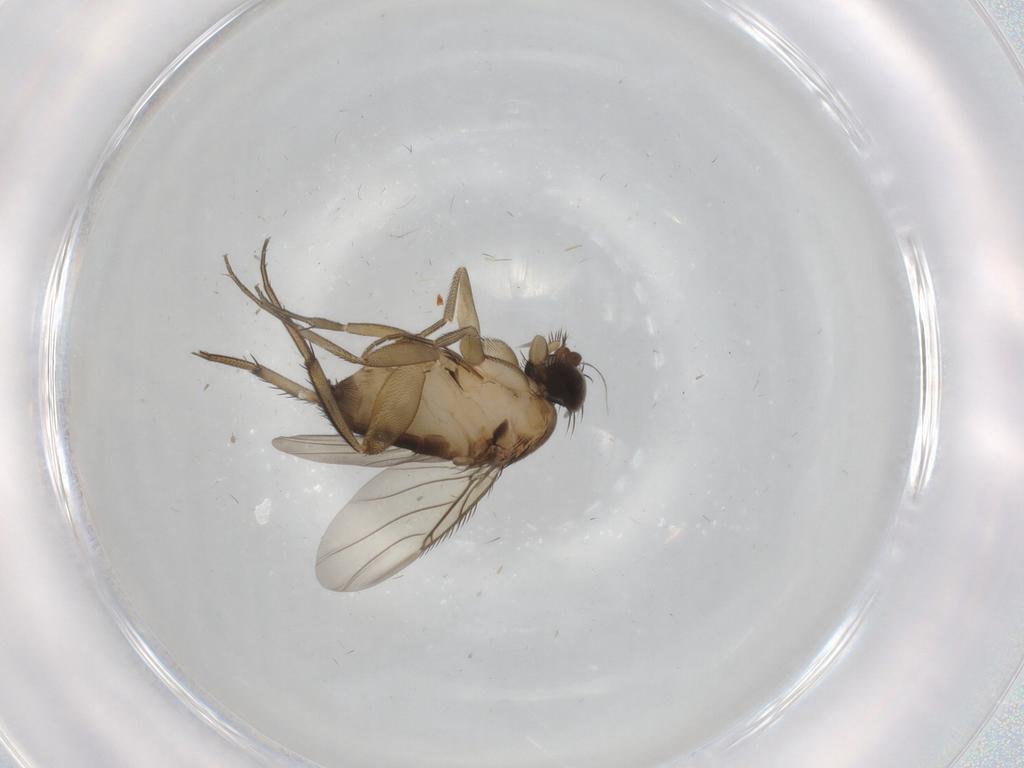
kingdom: Animalia
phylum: Arthropoda
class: Insecta
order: Diptera
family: Phoridae
